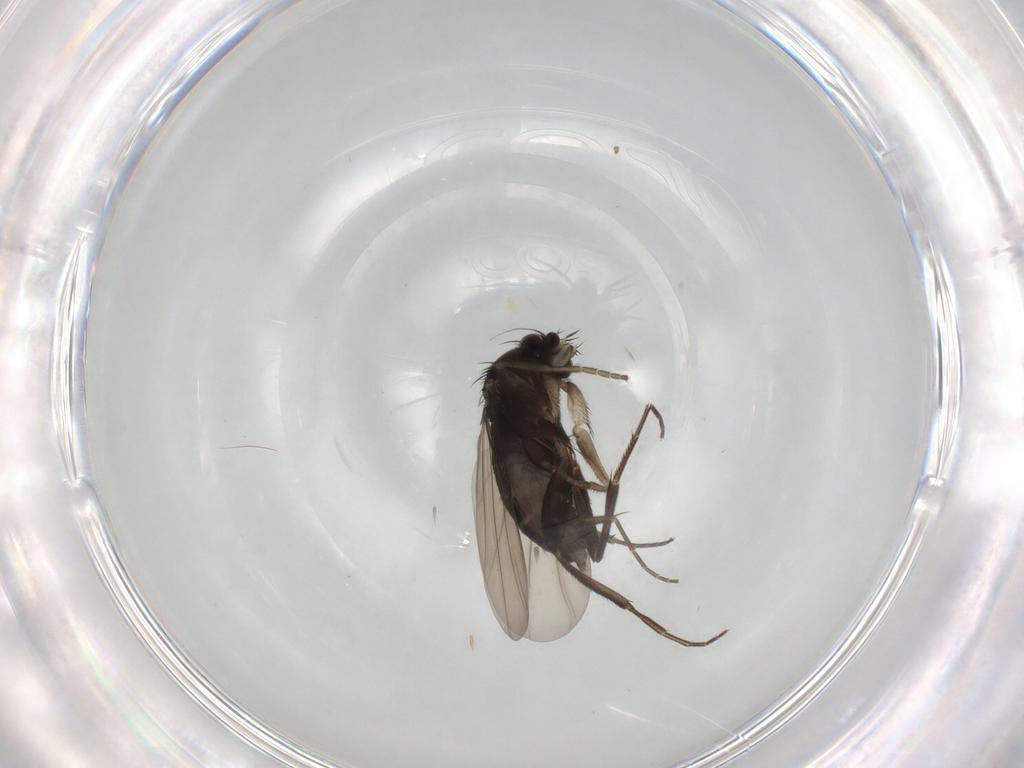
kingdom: Animalia
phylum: Arthropoda
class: Insecta
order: Diptera
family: Phoridae
